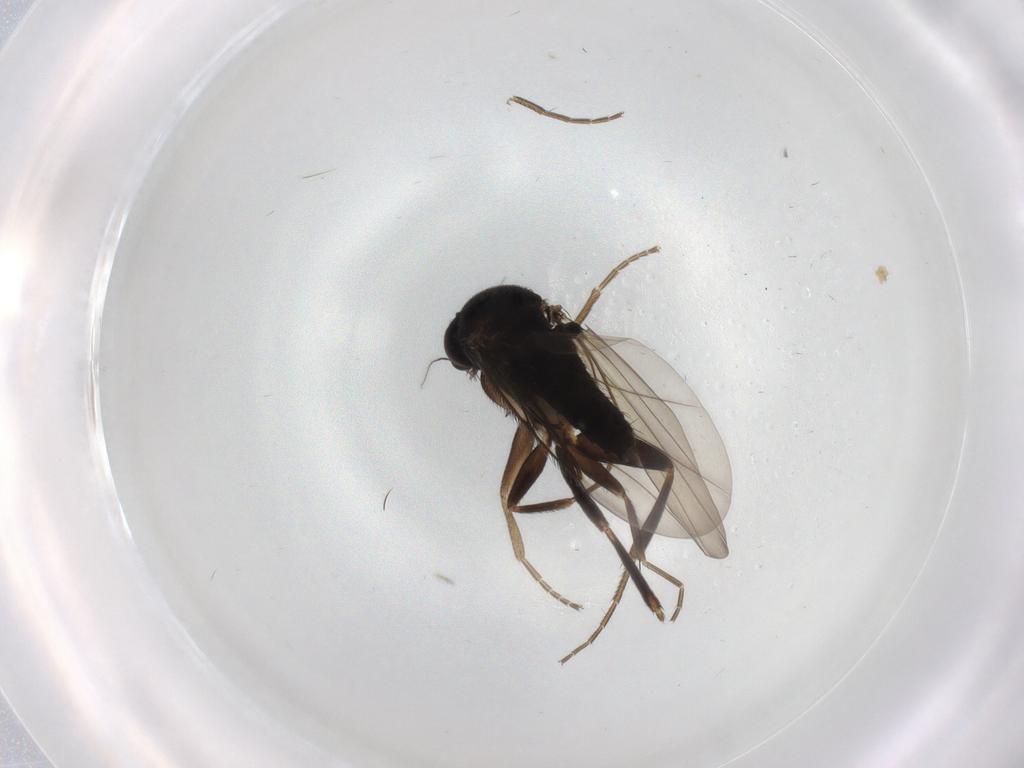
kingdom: Animalia
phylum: Arthropoda
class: Insecta
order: Diptera
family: Phoridae
